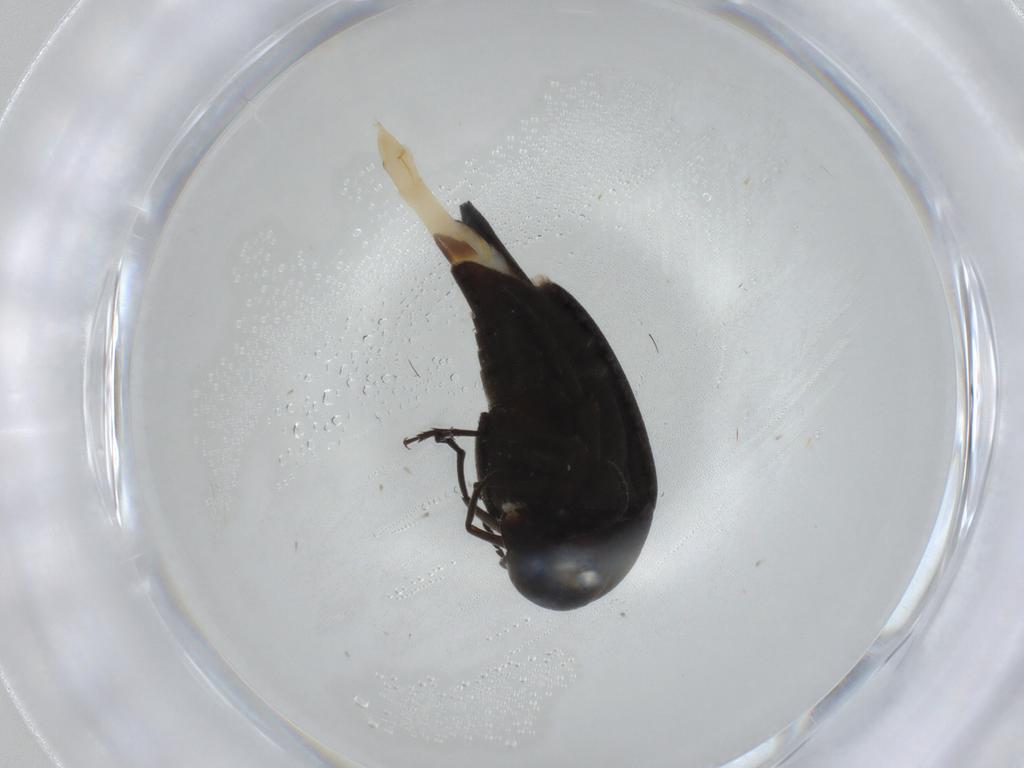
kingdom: Animalia
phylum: Arthropoda
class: Insecta
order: Coleoptera
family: Mordellidae
